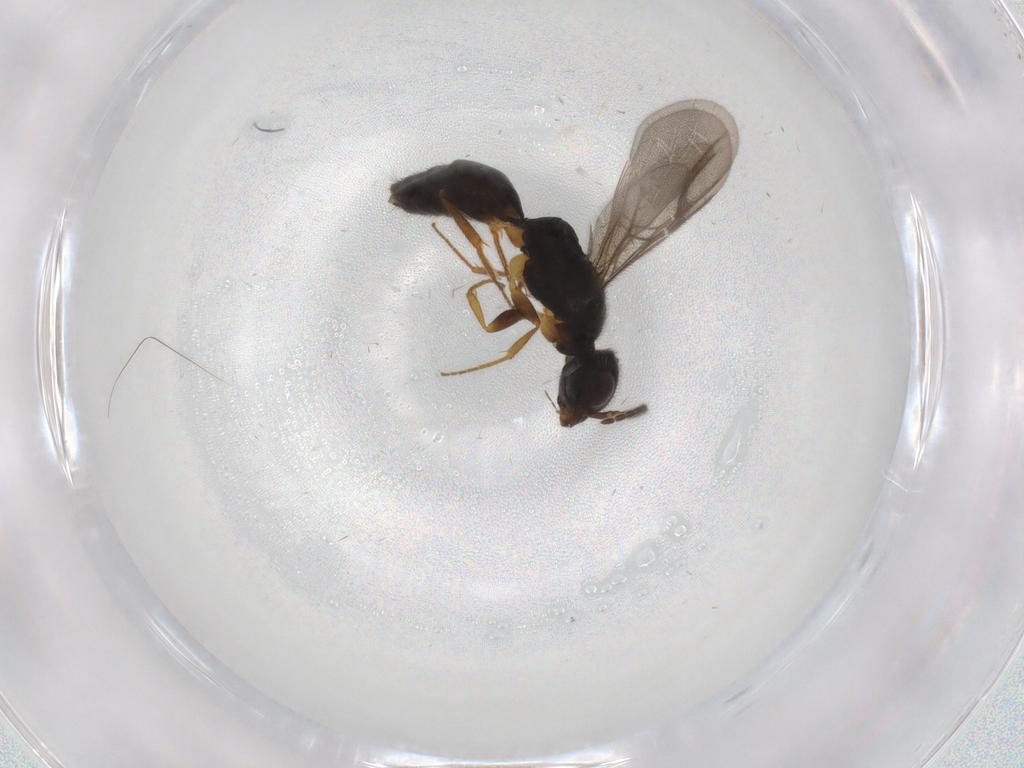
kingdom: Animalia
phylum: Arthropoda
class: Insecta
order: Hymenoptera
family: Bethylidae
